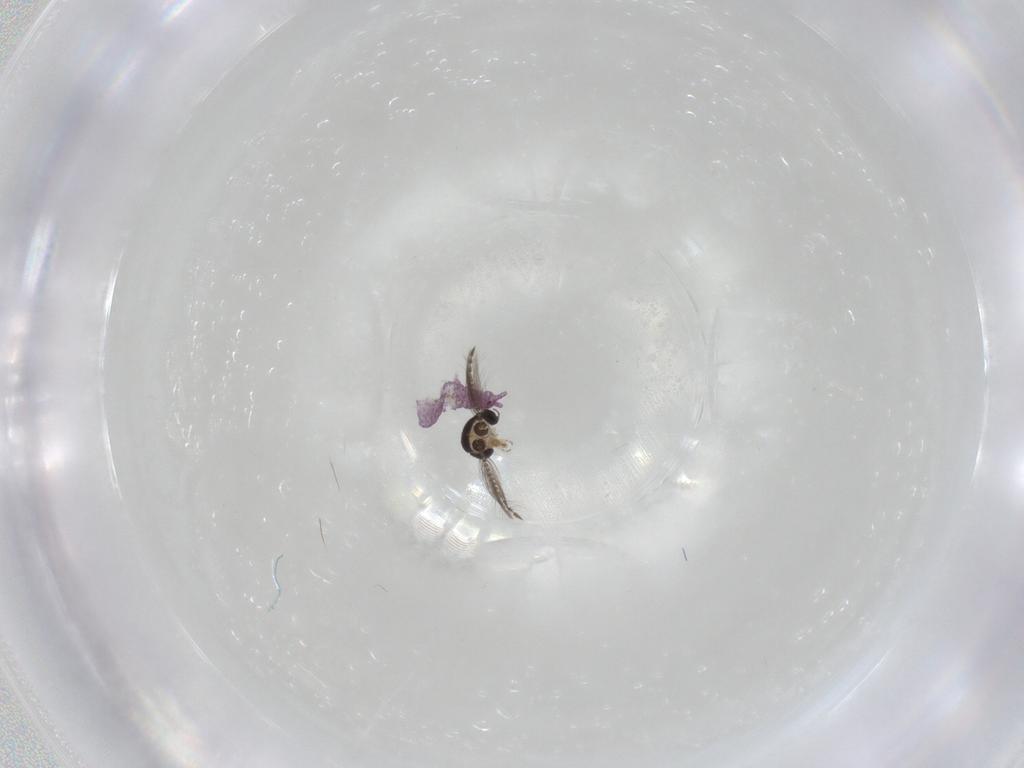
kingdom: Animalia
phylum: Arthropoda
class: Insecta
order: Diptera
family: Ceratopogonidae
